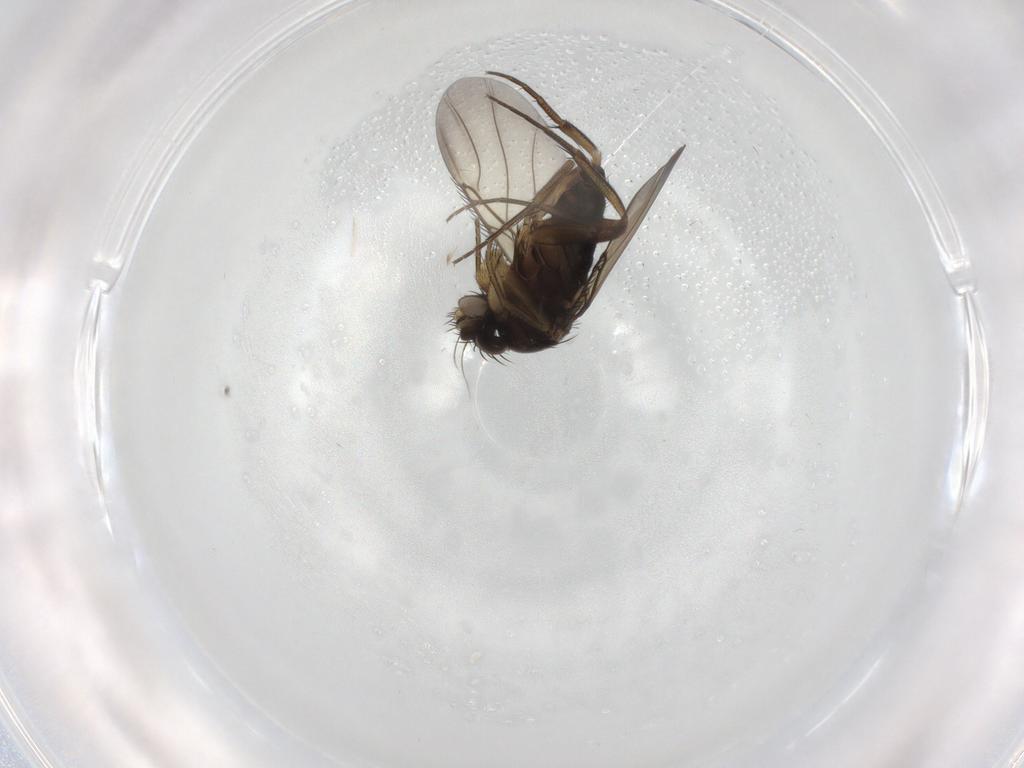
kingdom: Animalia
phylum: Arthropoda
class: Insecta
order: Diptera
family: Phoridae
